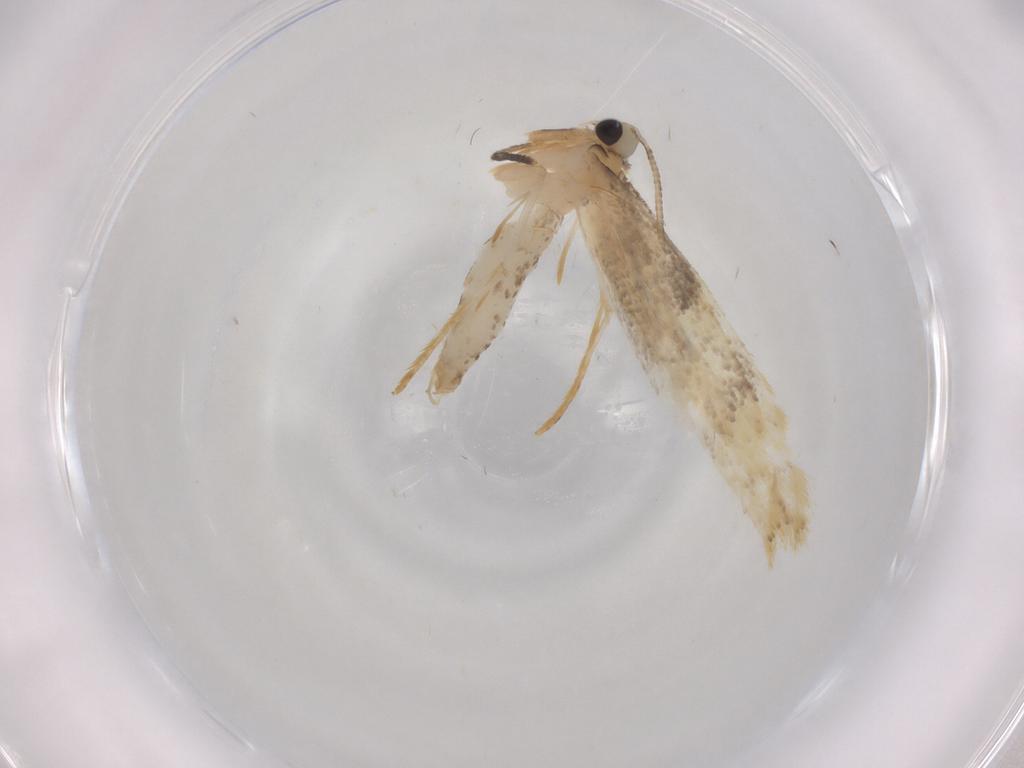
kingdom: Animalia
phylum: Arthropoda
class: Insecta
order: Lepidoptera
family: Tineidae
